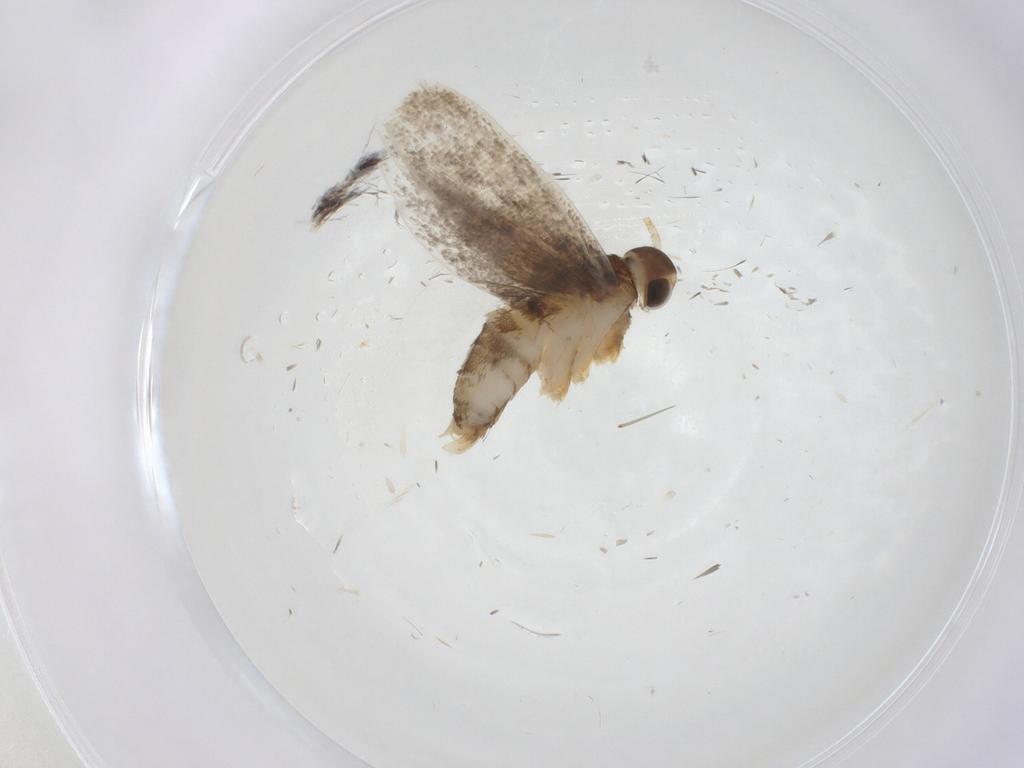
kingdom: Animalia
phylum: Arthropoda
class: Insecta
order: Lepidoptera
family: Oecophoridae
